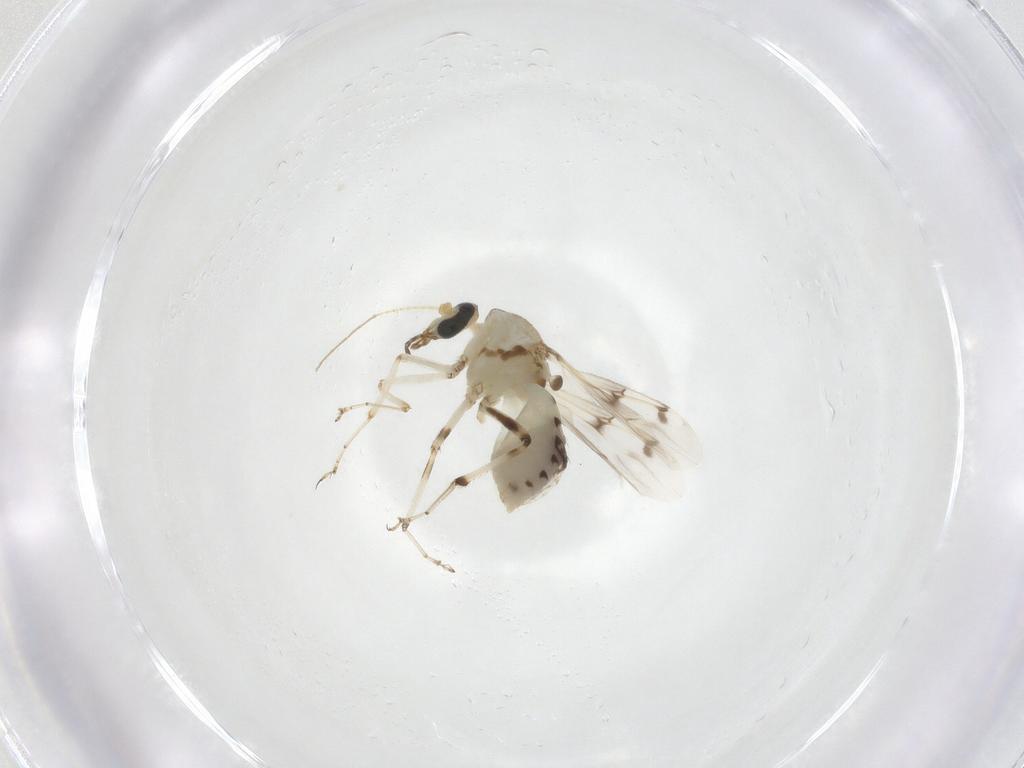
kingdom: Animalia
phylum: Arthropoda
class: Insecta
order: Diptera
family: Ceratopogonidae
